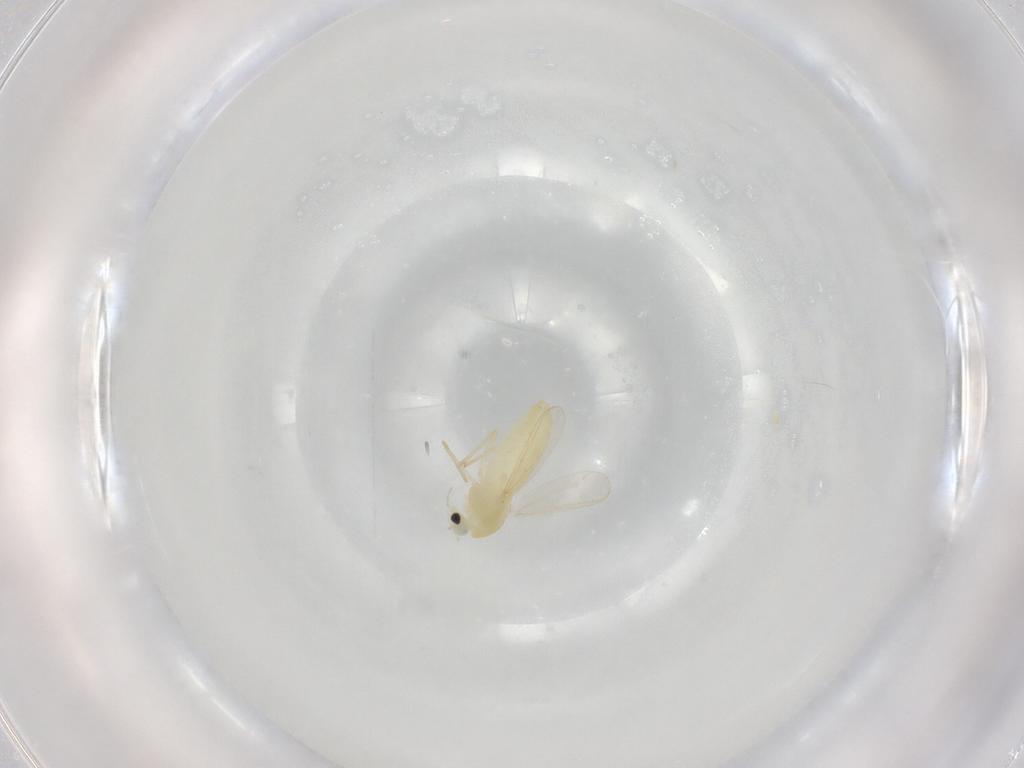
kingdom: Animalia
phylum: Arthropoda
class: Insecta
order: Diptera
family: Chironomidae
